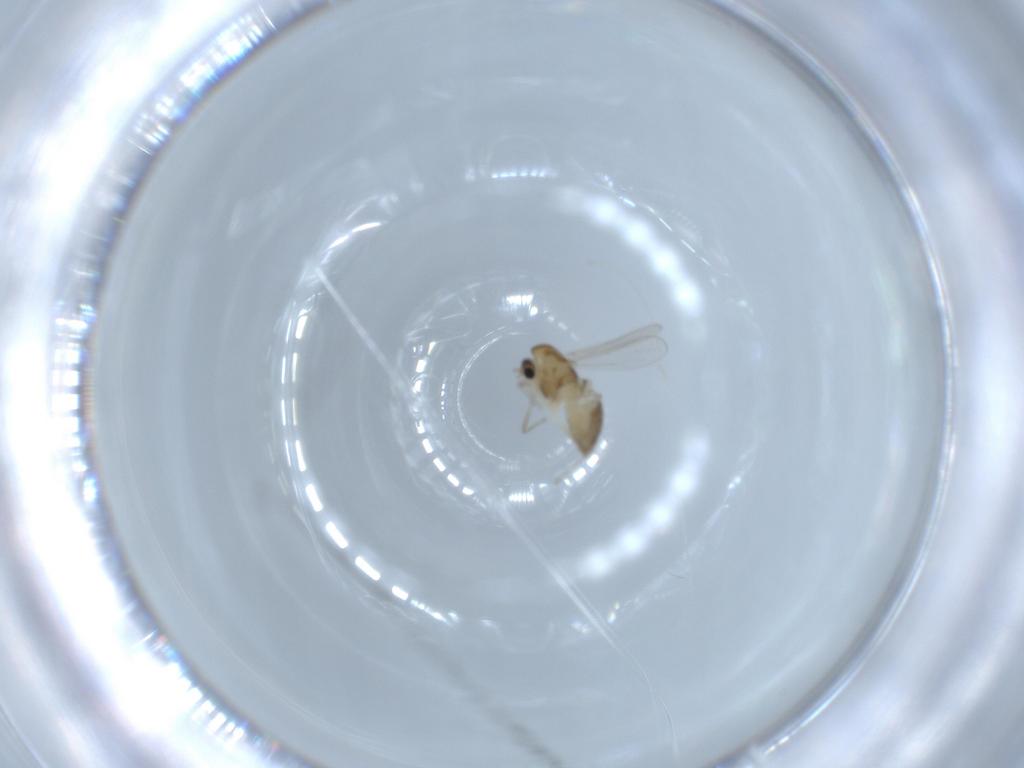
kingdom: Animalia
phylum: Arthropoda
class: Insecta
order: Diptera
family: Chironomidae
